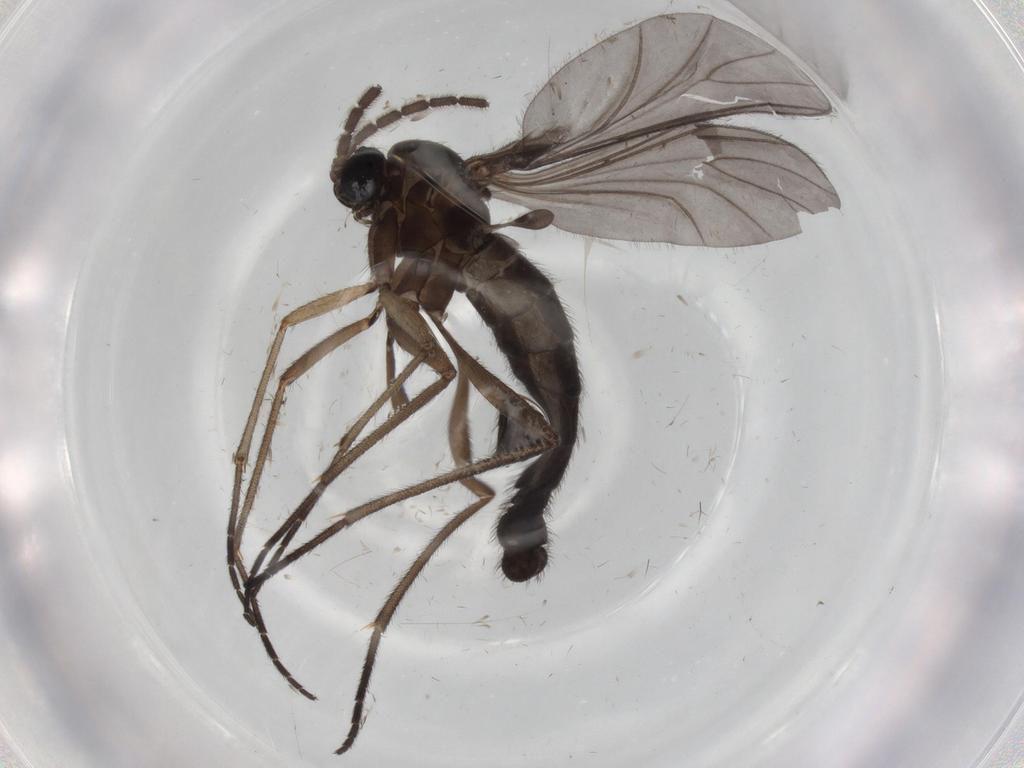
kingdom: Animalia
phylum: Arthropoda
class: Insecta
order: Diptera
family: Sciaridae
